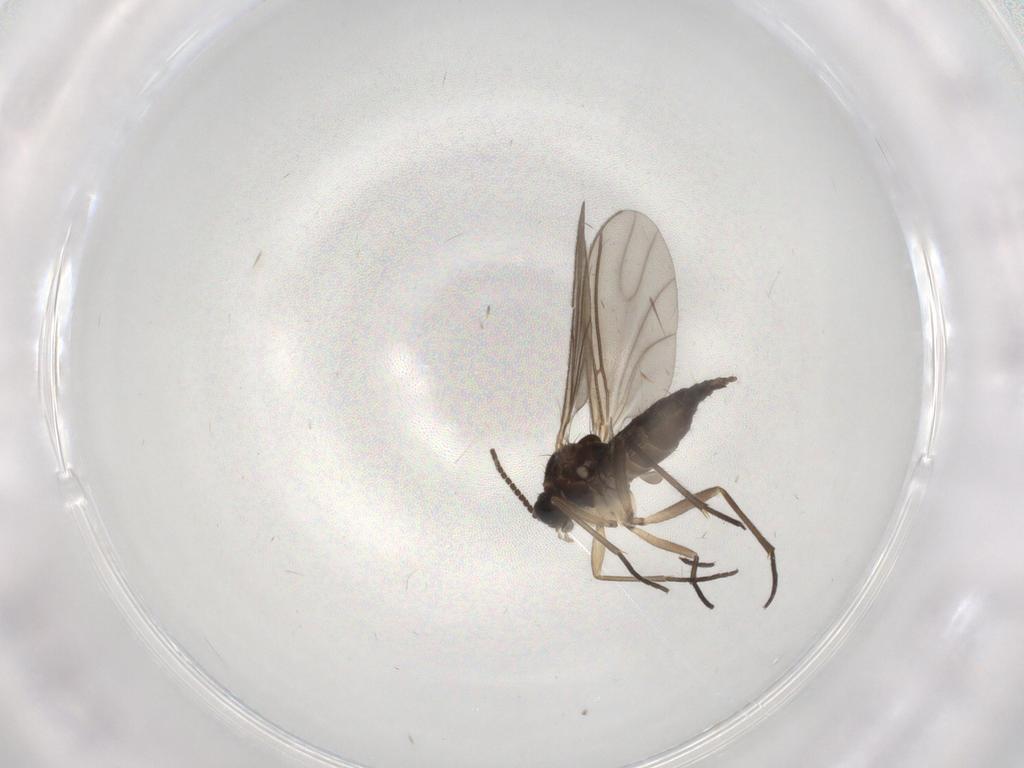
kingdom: Animalia
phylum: Arthropoda
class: Insecta
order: Diptera
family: Sciaridae
